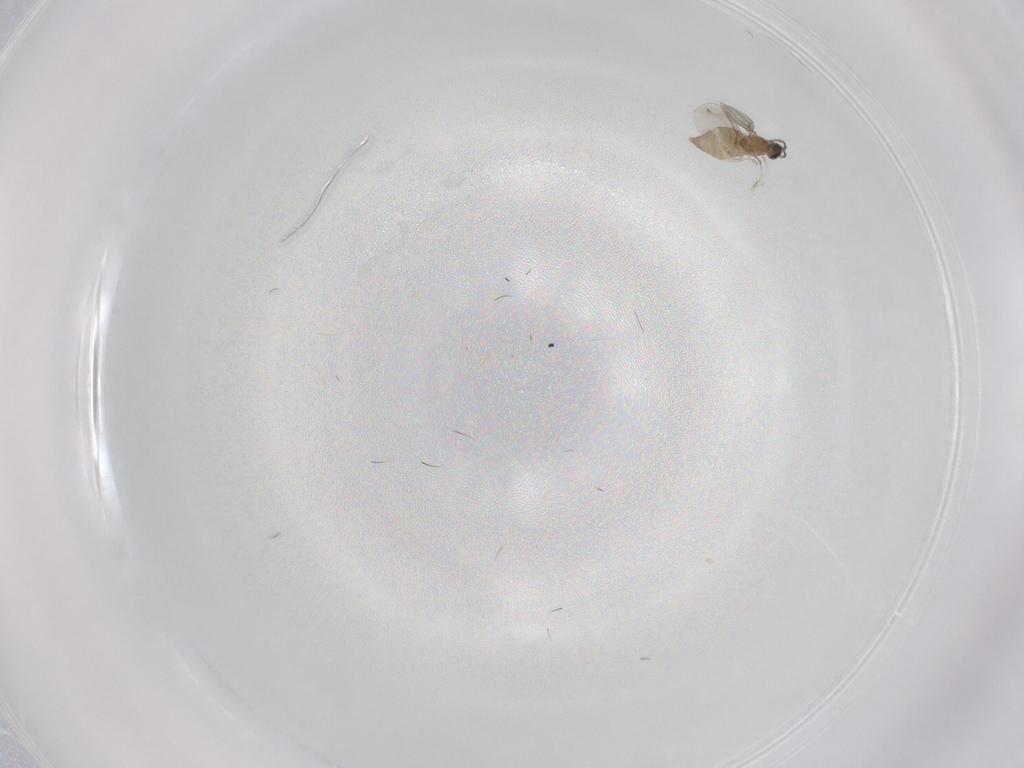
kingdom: Animalia
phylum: Arthropoda
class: Insecta
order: Diptera
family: Cecidomyiidae
